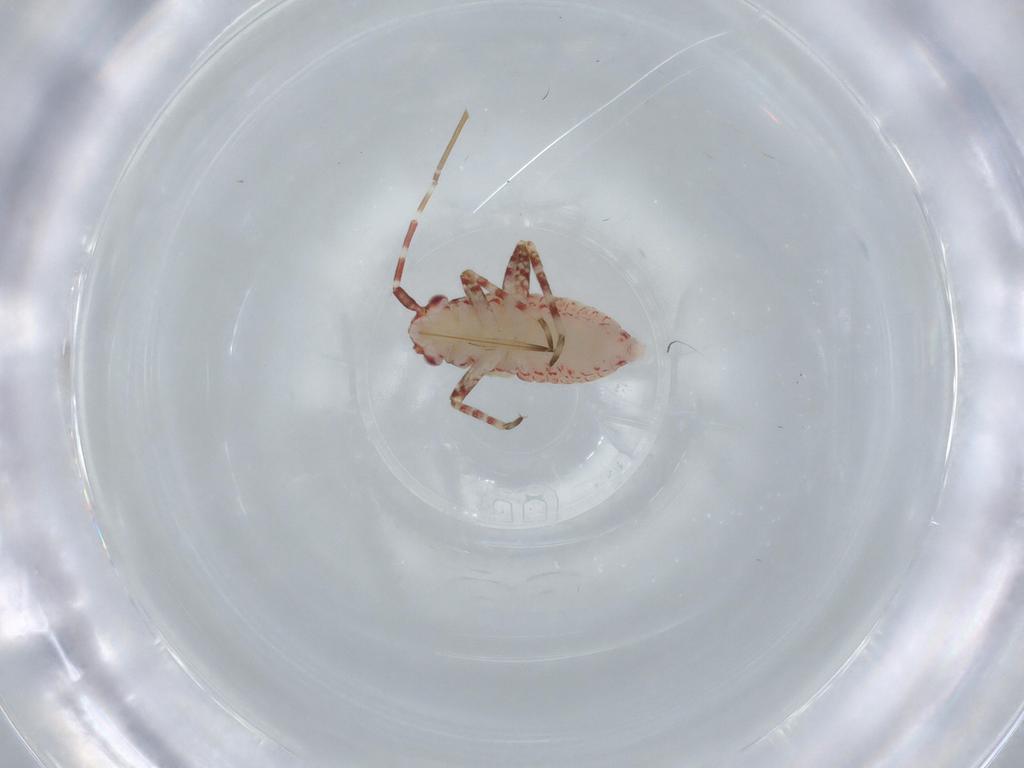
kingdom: Animalia
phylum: Arthropoda
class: Insecta
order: Hemiptera
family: Miridae
